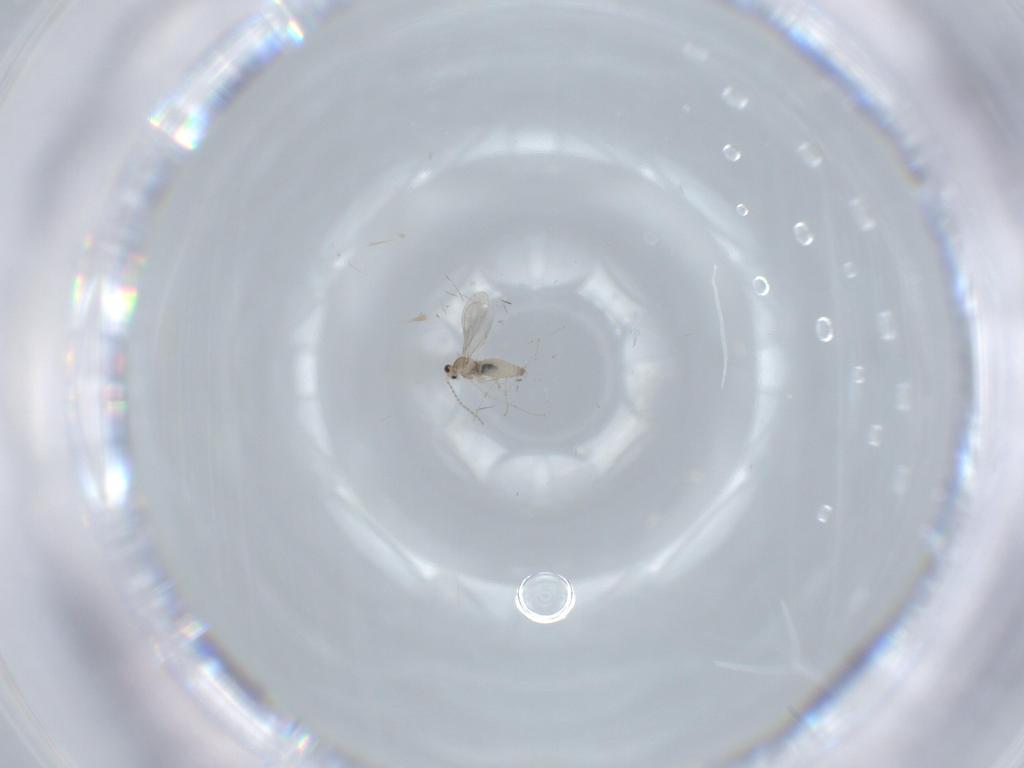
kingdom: Animalia
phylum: Arthropoda
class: Insecta
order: Diptera
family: Cecidomyiidae
